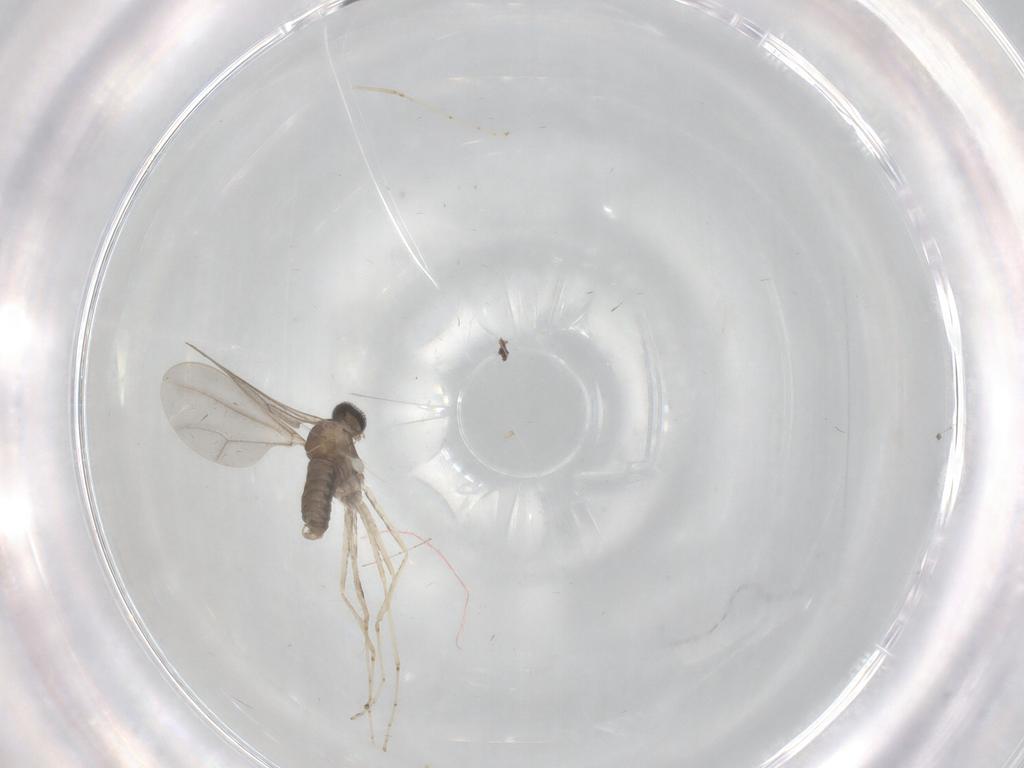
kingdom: Animalia
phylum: Arthropoda
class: Insecta
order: Diptera
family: Cecidomyiidae
